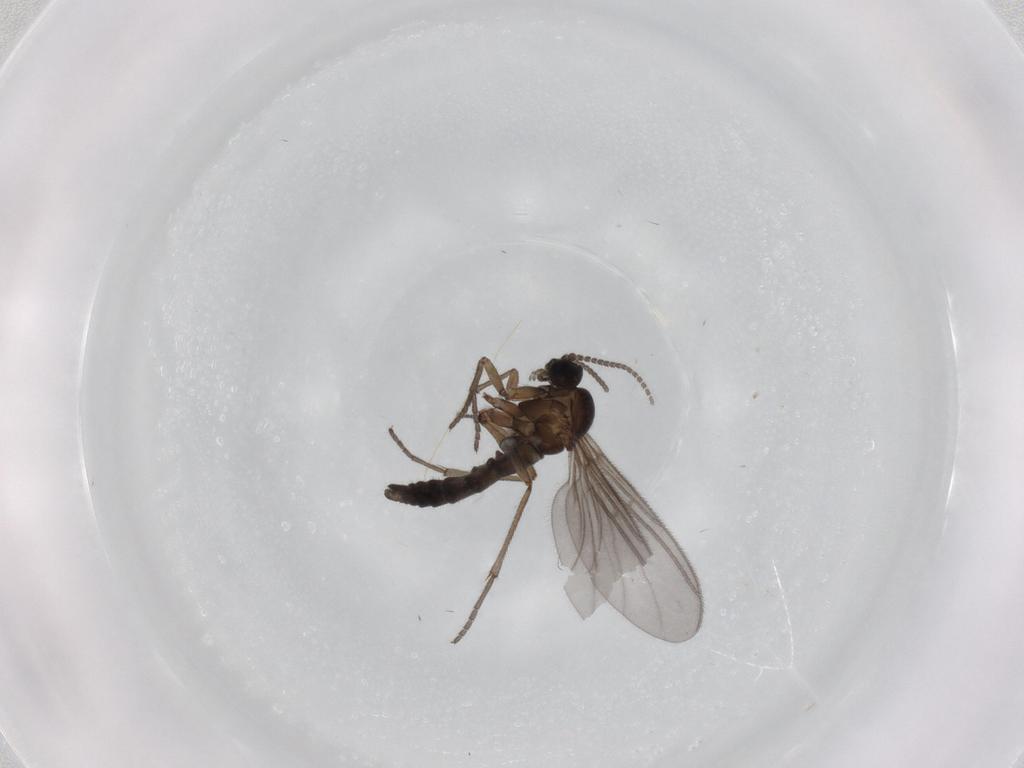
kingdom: Animalia
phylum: Arthropoda
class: Insecta
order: Diptera
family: Sciaridae
